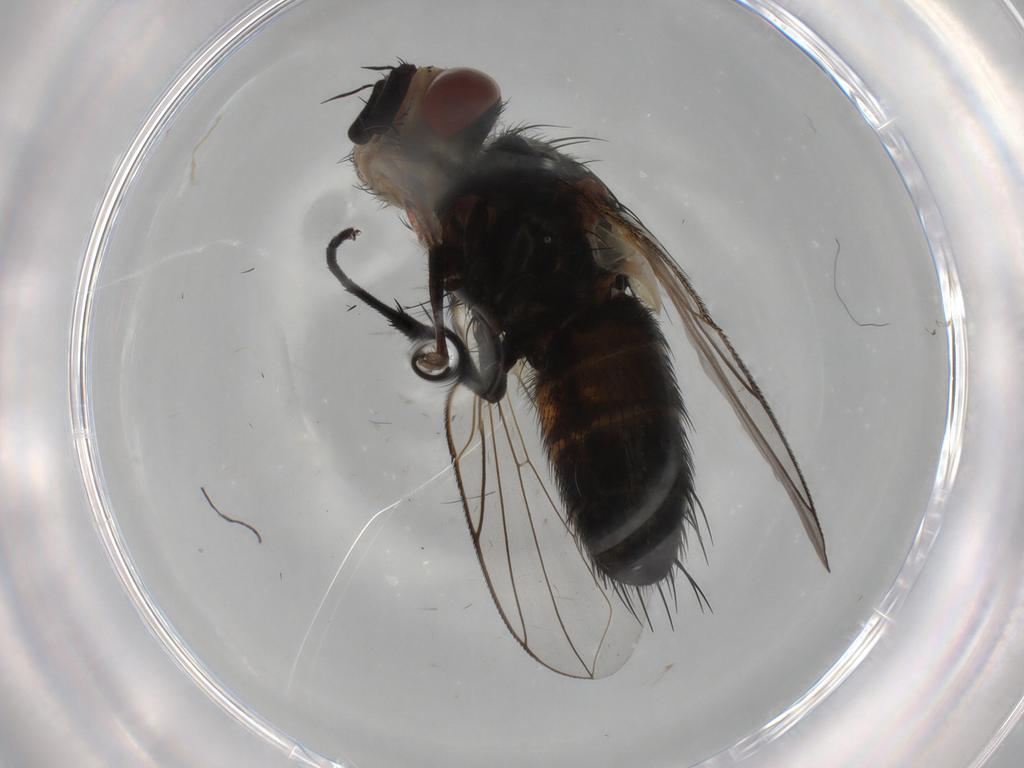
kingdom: Animalia
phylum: Arthropoda
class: Insecta
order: Diptera
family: Tachinidae
